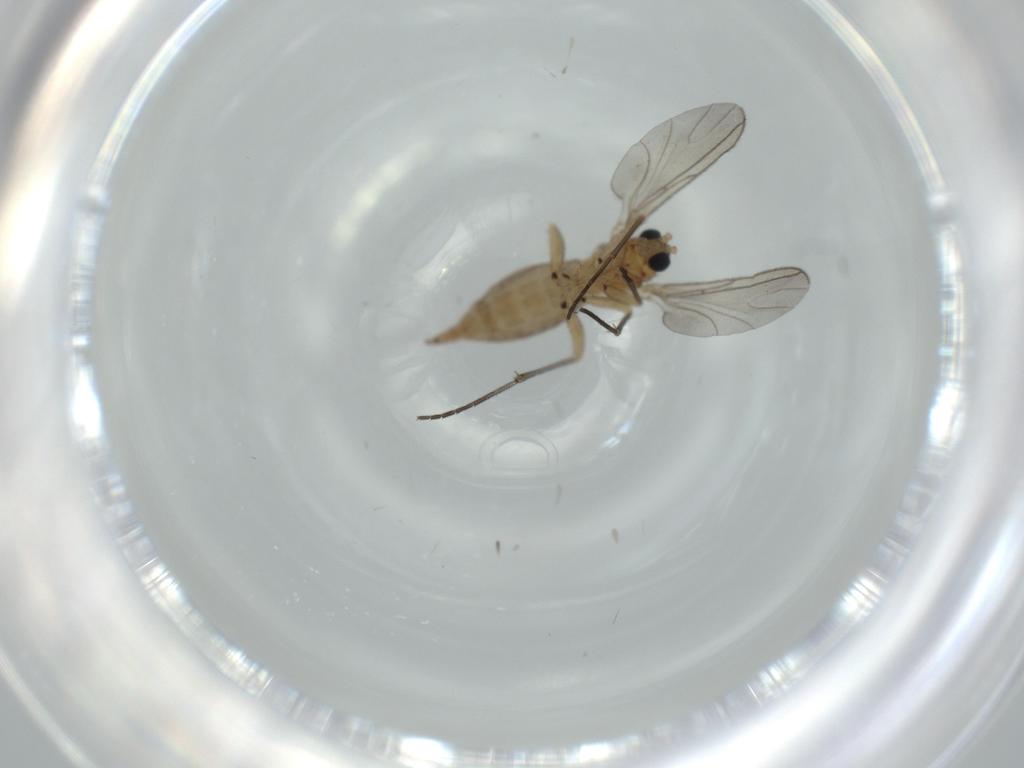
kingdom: Animalia
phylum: Arthropoda
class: Insecta
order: Diptera
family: Sciaridae
